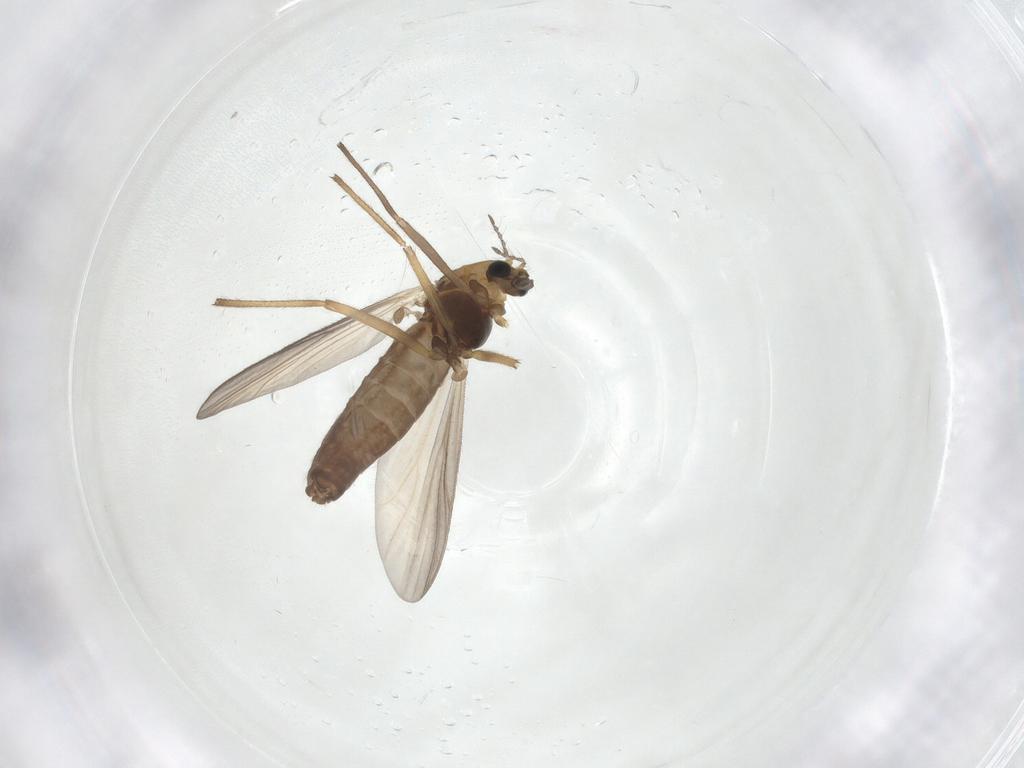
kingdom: Animalia
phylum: Arthropoda
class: Insecta
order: Diptera
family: Chironomidae
